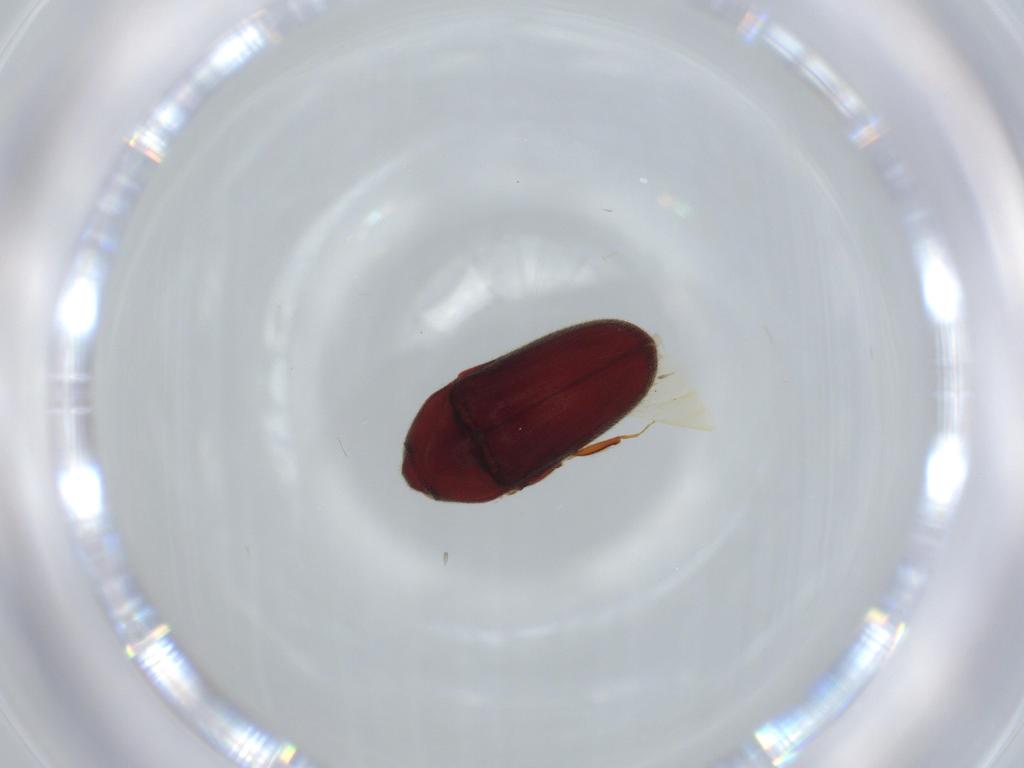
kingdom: Animalia
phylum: Arthropoda
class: Insecta
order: Coleoptera
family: Throscidae
